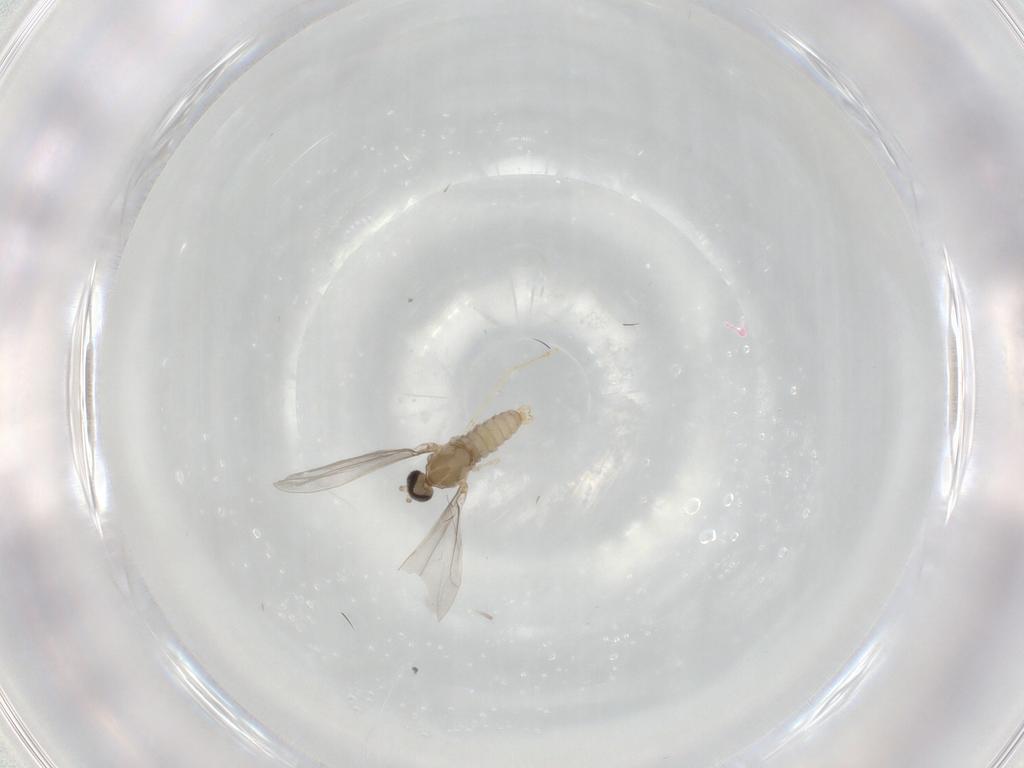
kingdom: Animalia
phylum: Arthropoda
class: Insecta
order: Diptera
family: Cecidomyiidae
